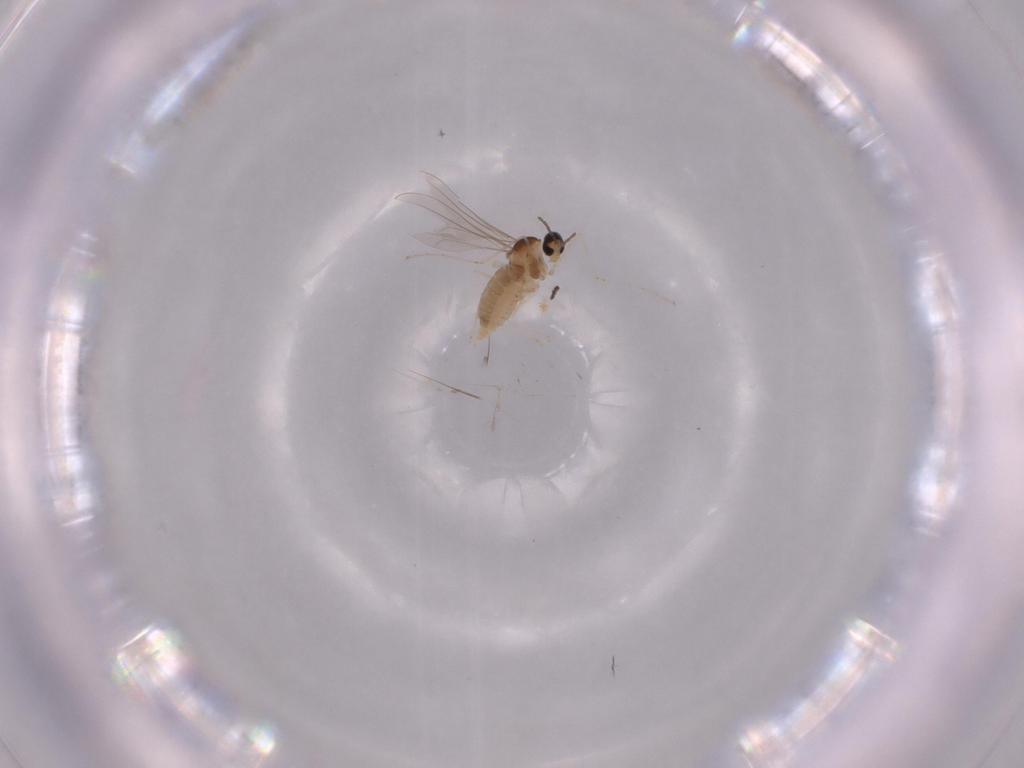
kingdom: Animalia
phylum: Arthropoda
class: Insecta
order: Diptera
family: Cecidomyiidae
